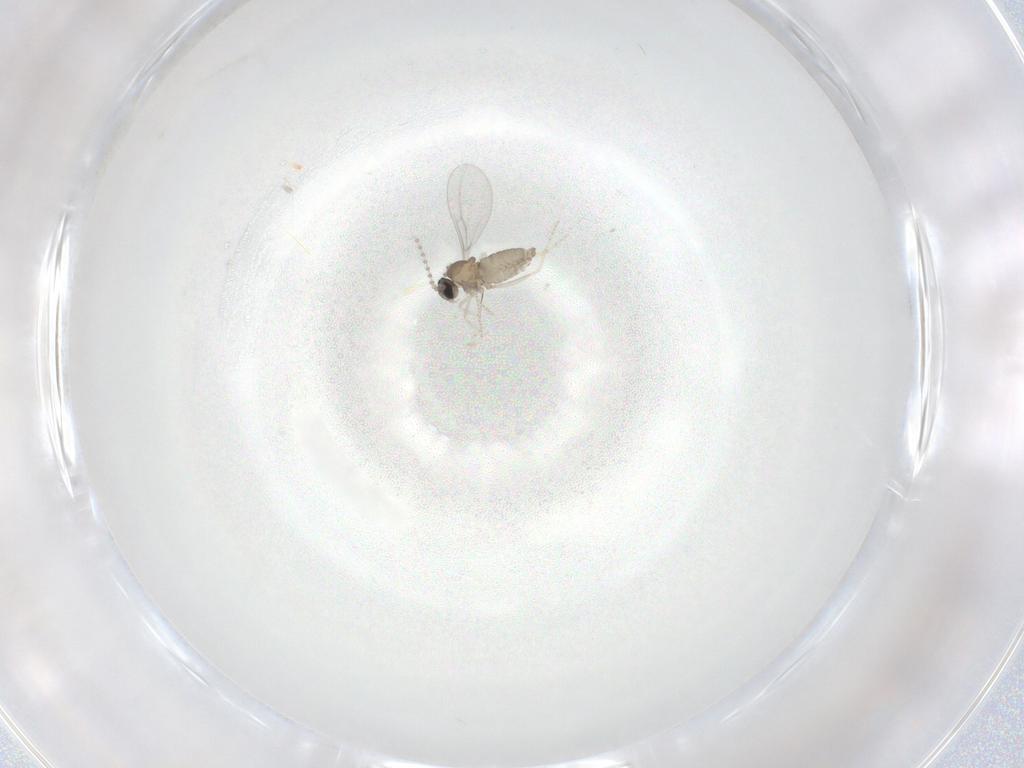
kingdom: Animalia
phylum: Arthropoda
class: Insecta
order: Diptera
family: Cecidomyiidae
